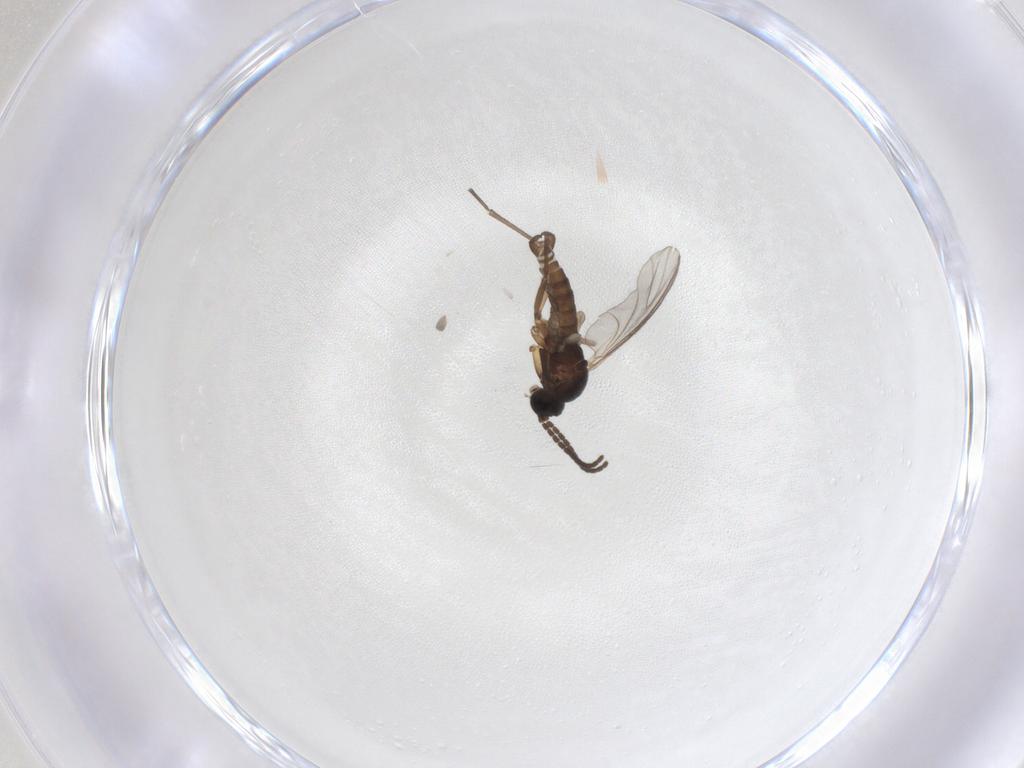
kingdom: Animalia
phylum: Arthropoda
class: Insecta
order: Diptera
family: Sciaridae
